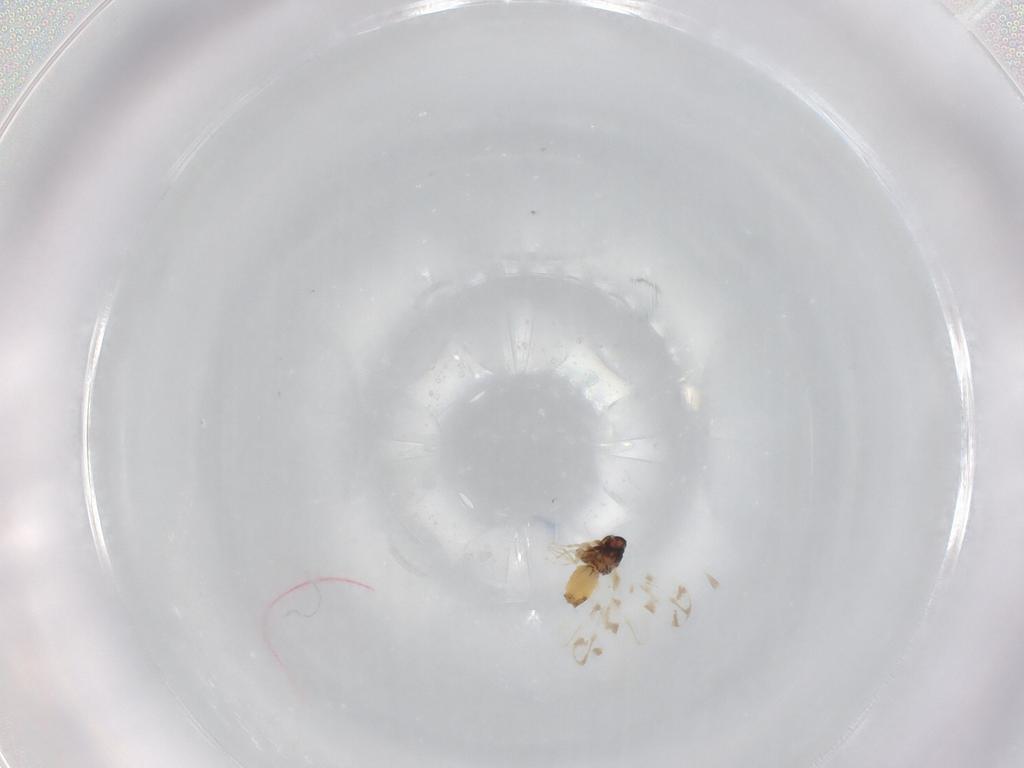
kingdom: Animalia
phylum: Arthropoda
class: Insecta
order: Hemiptera
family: Aleyrodidae
